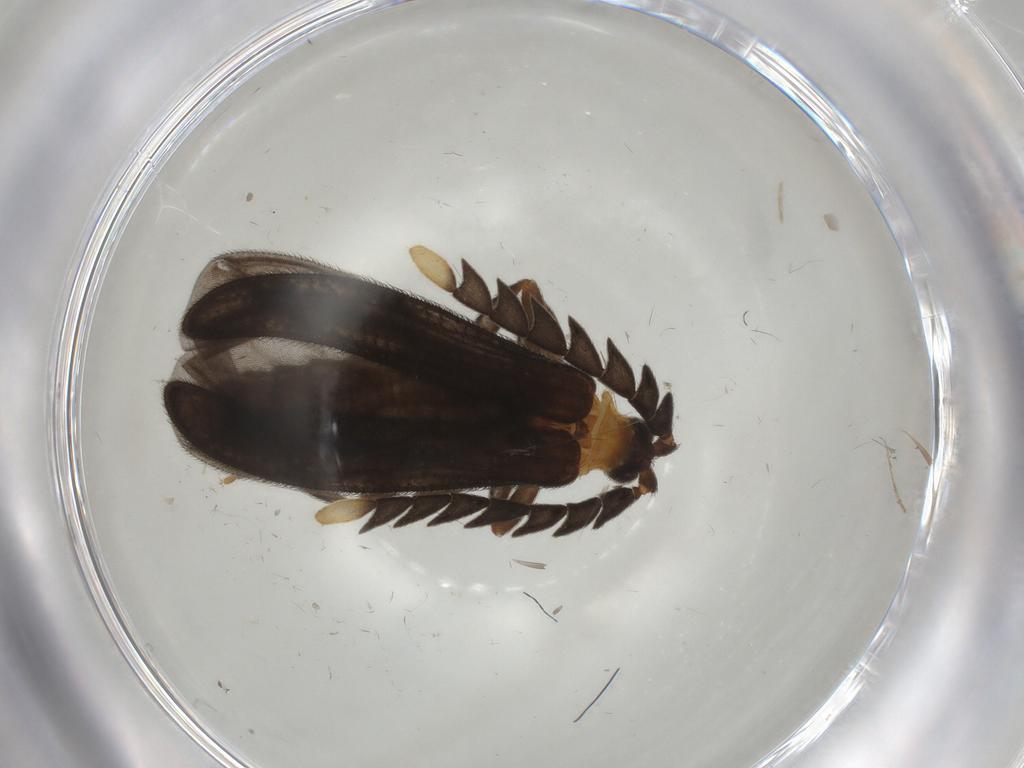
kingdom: Animalia
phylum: Arthropoda
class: Insecta
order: Coleoptera
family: Lycidae
